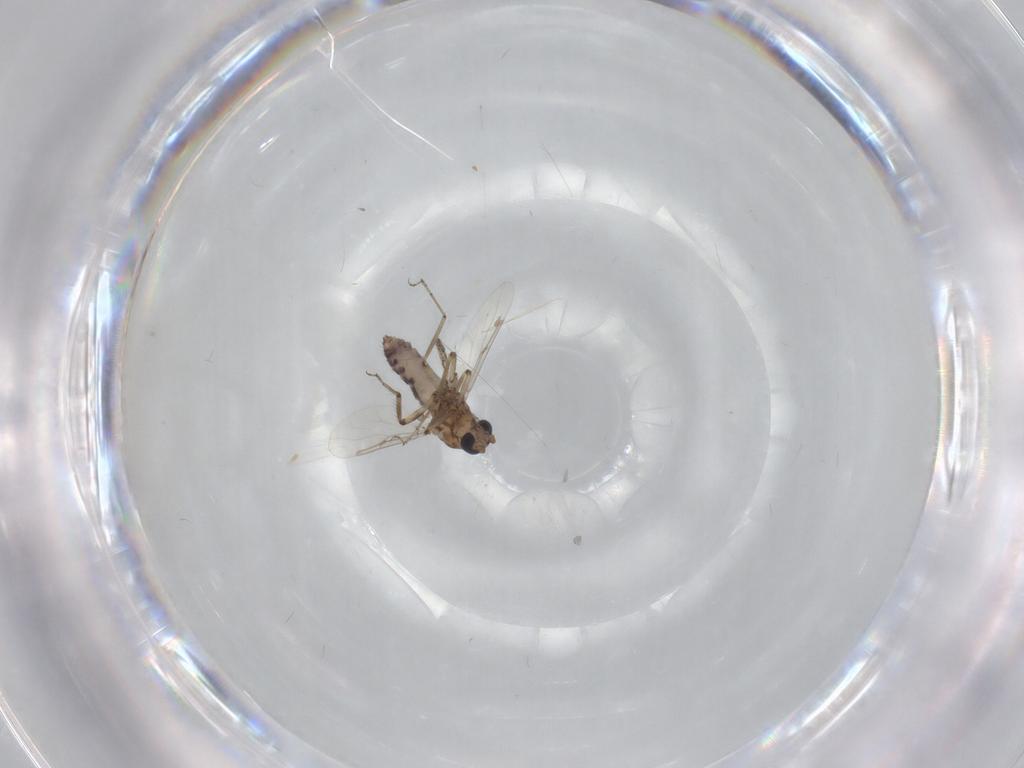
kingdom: Animalia
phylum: Arthropoda
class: Insecta
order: Diptera
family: Ceratopogonidae
